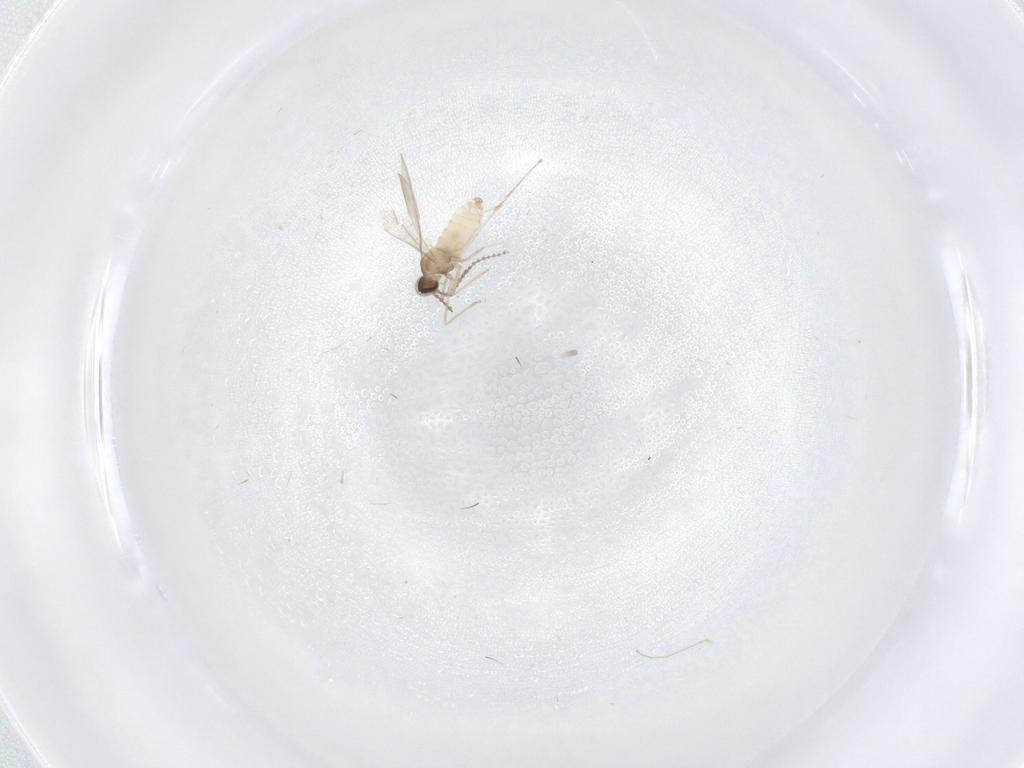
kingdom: Animalia
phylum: Arthropoda
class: Insecta
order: Diptera
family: Cecidomyiidae
